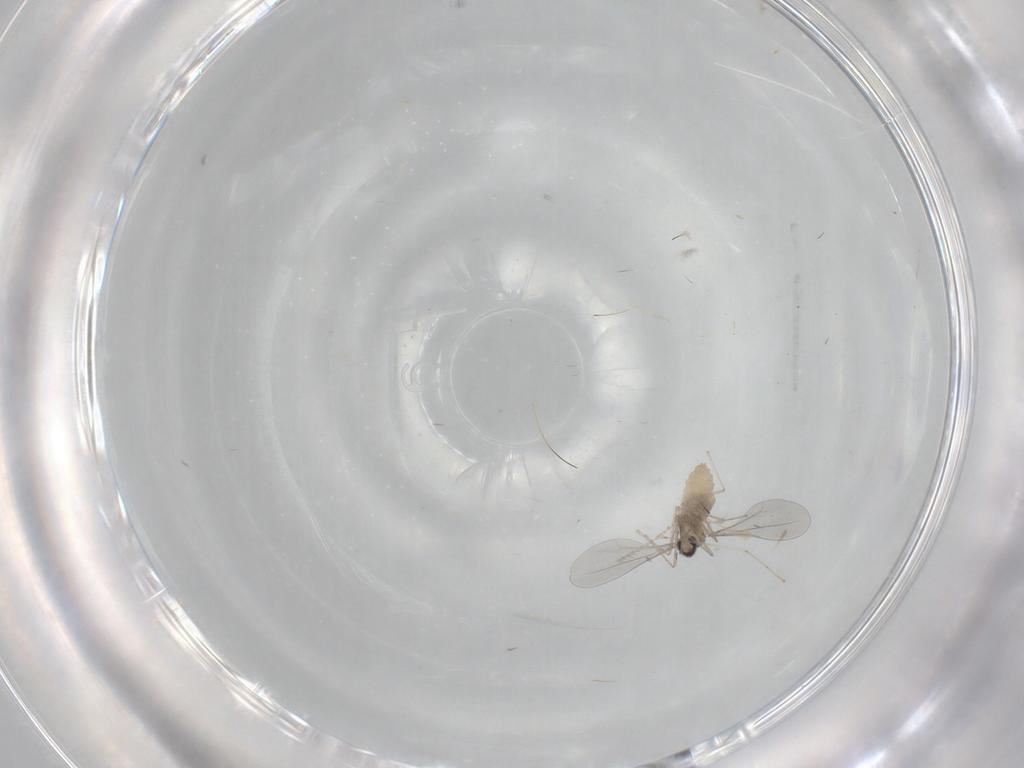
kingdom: Animalia
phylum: Arthropoda
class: Insecta
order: Diptera
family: Cecidomyiidae
